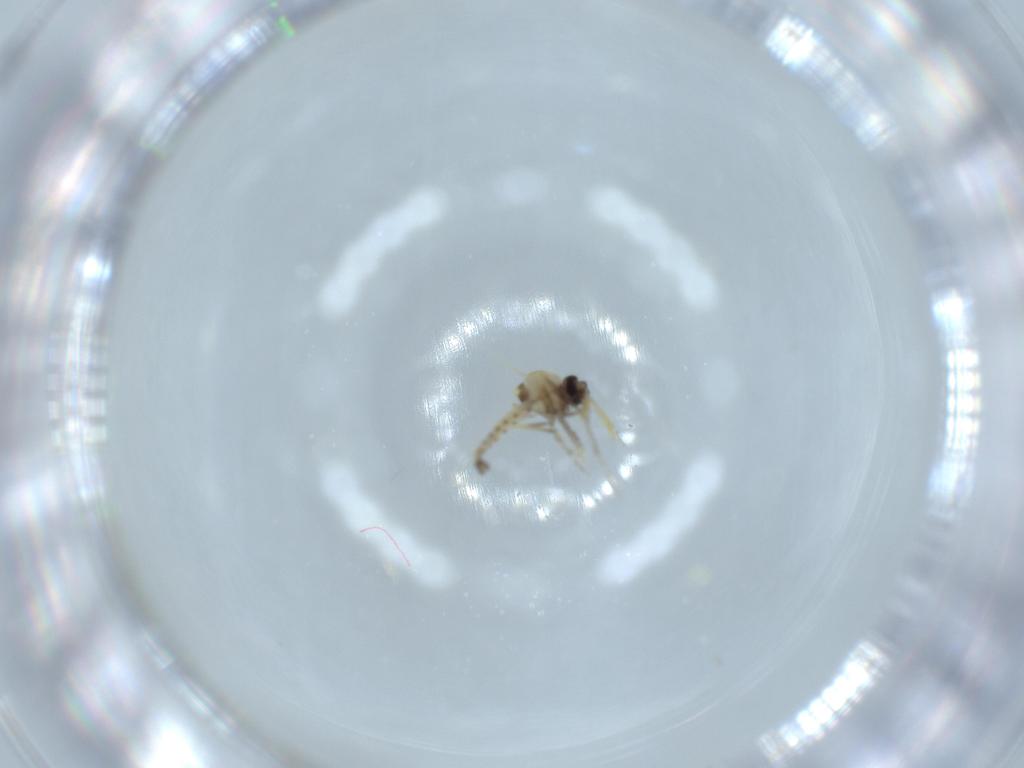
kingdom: Animalia
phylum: Arthropoda
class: Insecta
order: Diptera
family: Ceratopogonidae
